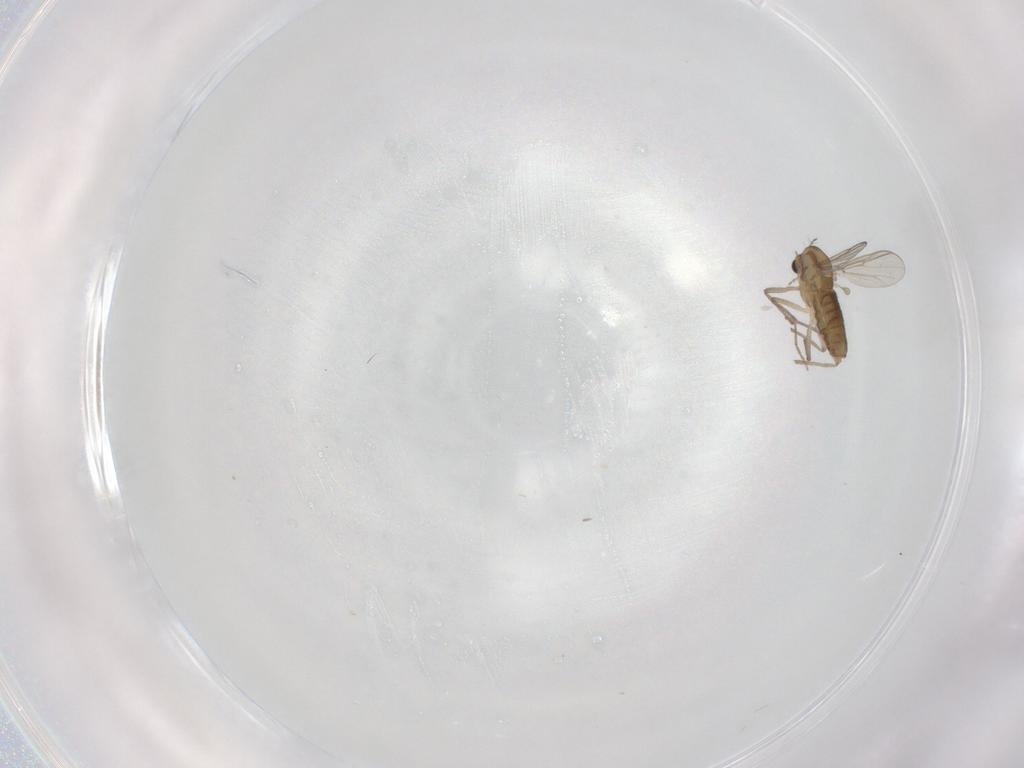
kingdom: Animalia
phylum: Arthropoda
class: Insecta
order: Diptera
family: Chironomidae
